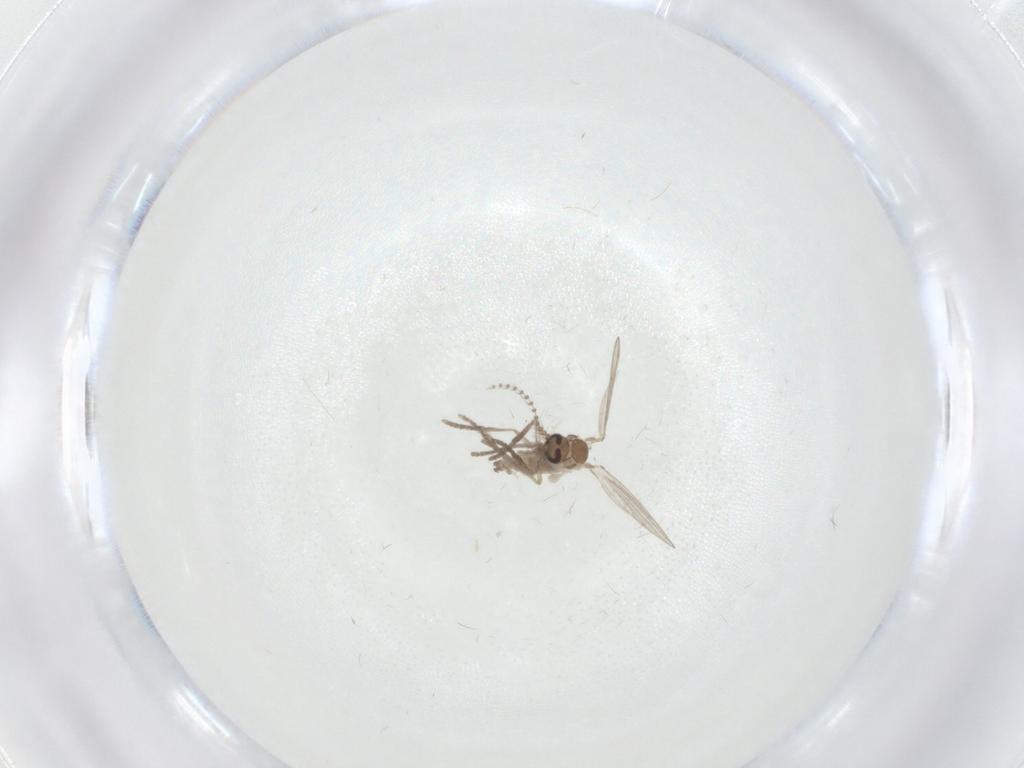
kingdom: Animalia
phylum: Arthropoda
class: Insecta
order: Diptera
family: Psychodidae
